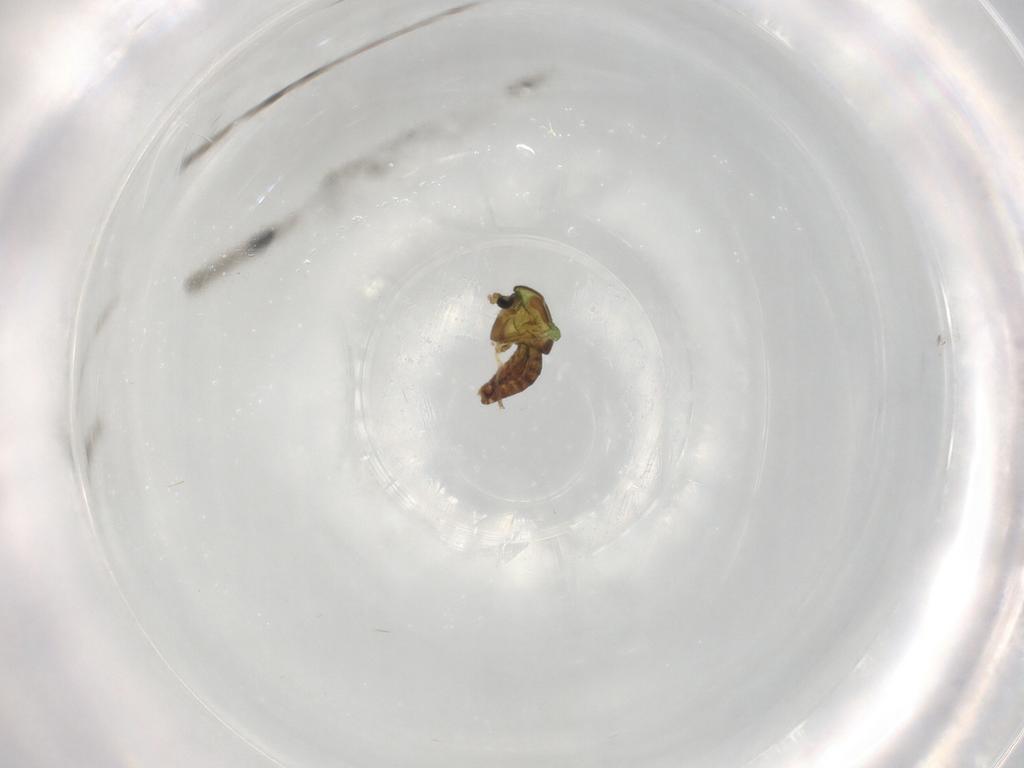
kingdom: Animalia
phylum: Arthropoda
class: Insecta
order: Diptera
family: Chironomidae
